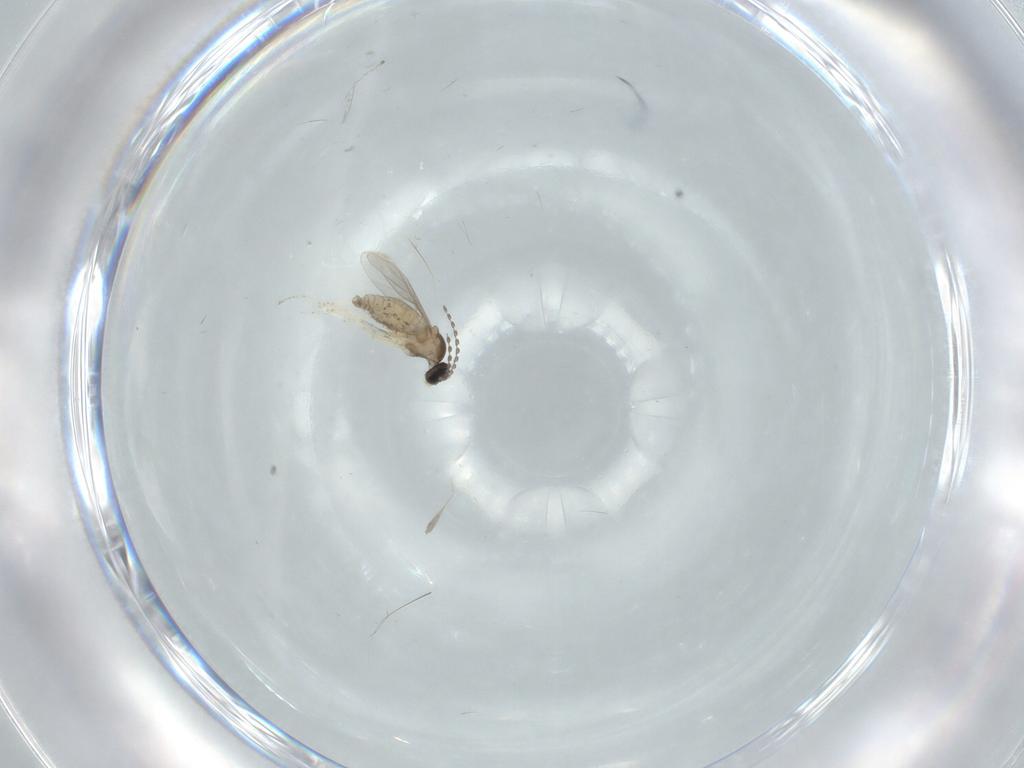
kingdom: Animalia
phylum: Arthropoda
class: Insecta
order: Diptera
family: Cecidomyiidae
